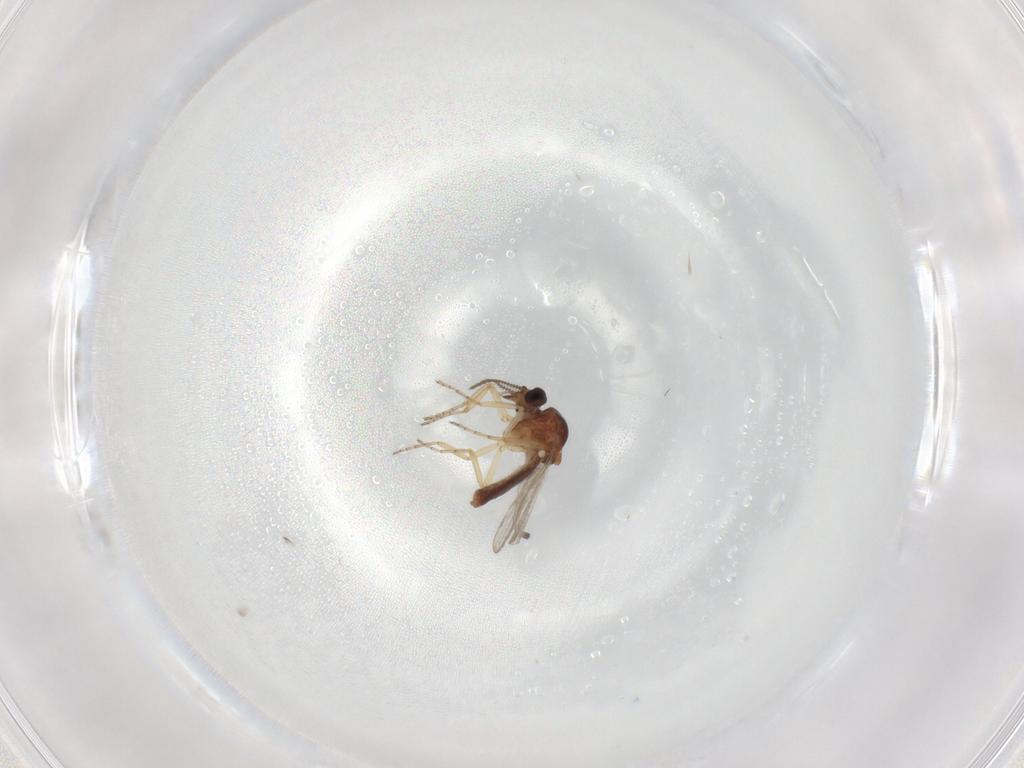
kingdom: Animalia
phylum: Arthropoda
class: Insecta
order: Diptera
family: Ceratopogonidae
